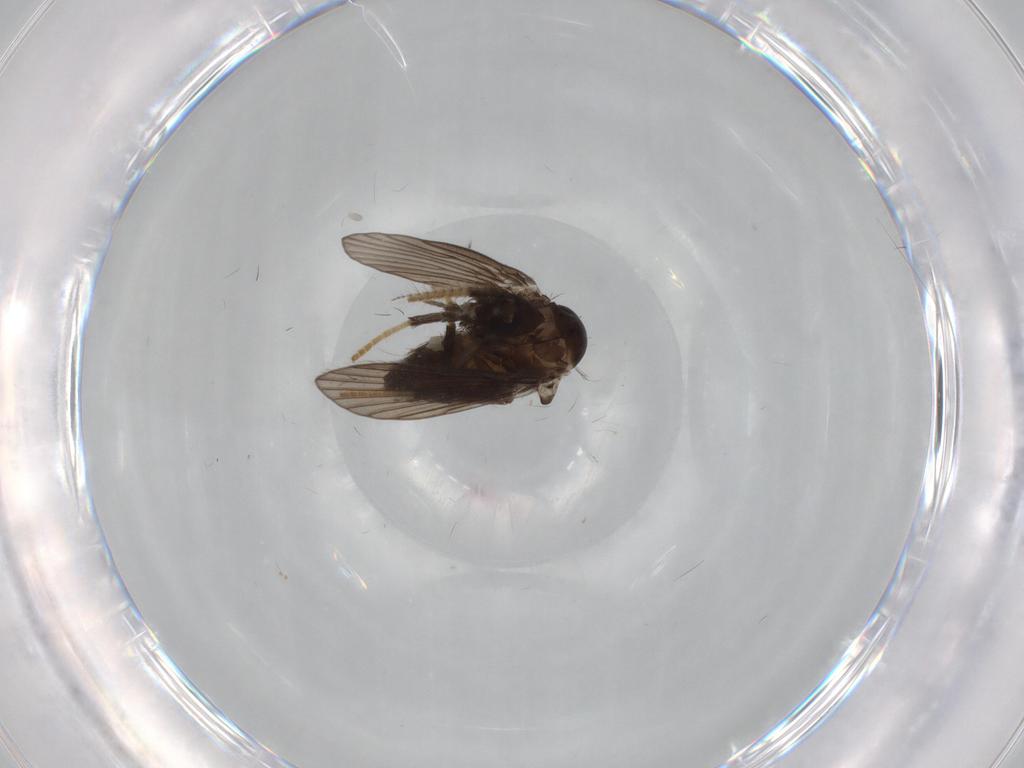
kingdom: Animalia
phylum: Arthropoda
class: Insecta
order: Diptera
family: Psychodidae
